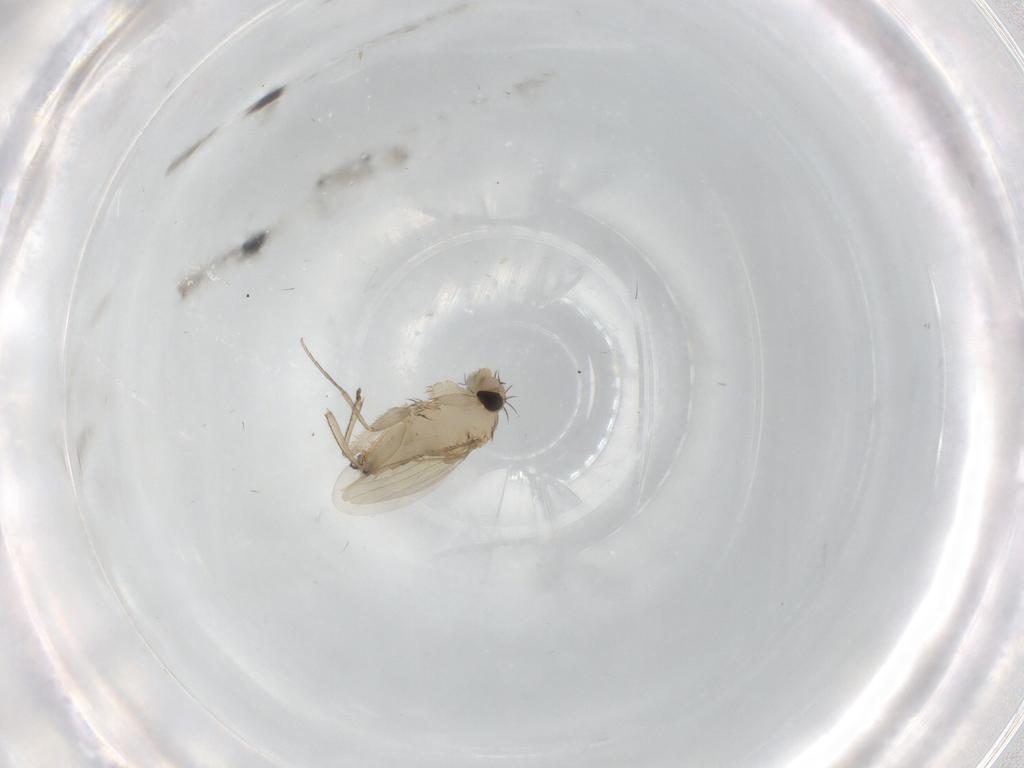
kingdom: Animalia
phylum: Arthropoda
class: Insecta
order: Diptera
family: Phoridae
